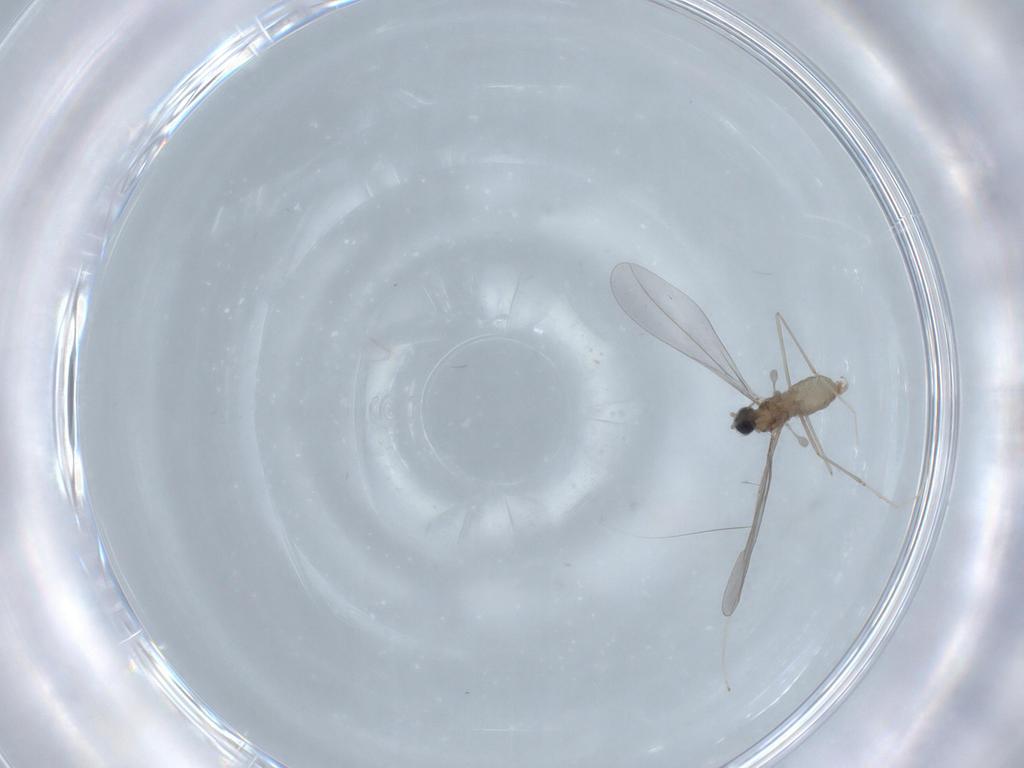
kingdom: Animalia
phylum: Arthropoda
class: Insecta
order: Diptera
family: Cecidomyiidae
